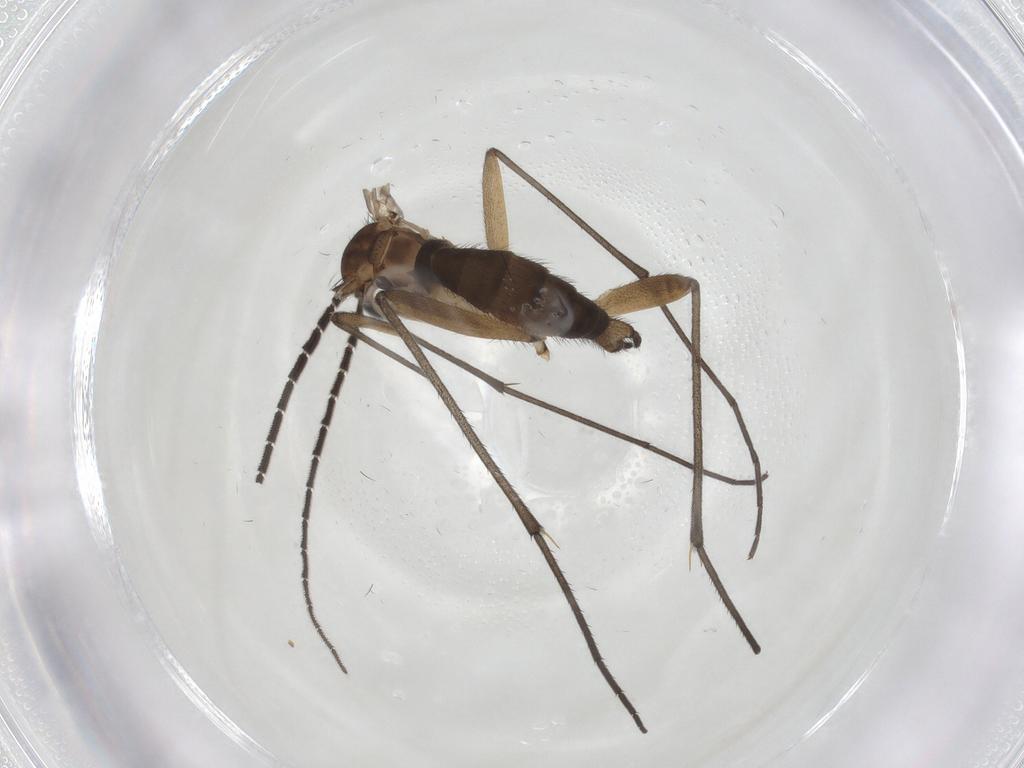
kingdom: Animalia
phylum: Arthropoda
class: Insecta
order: Diptera
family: Sciaridae
